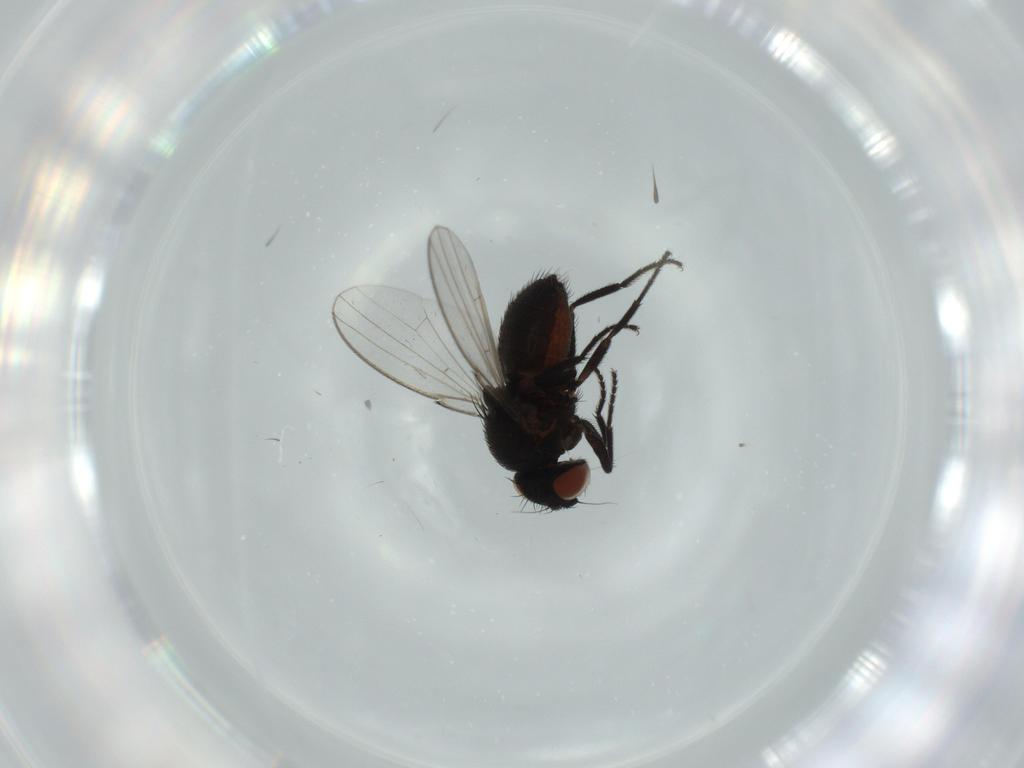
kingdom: Animalia
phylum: Arthropoda
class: Insecta
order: Diptera
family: Milichiidae
